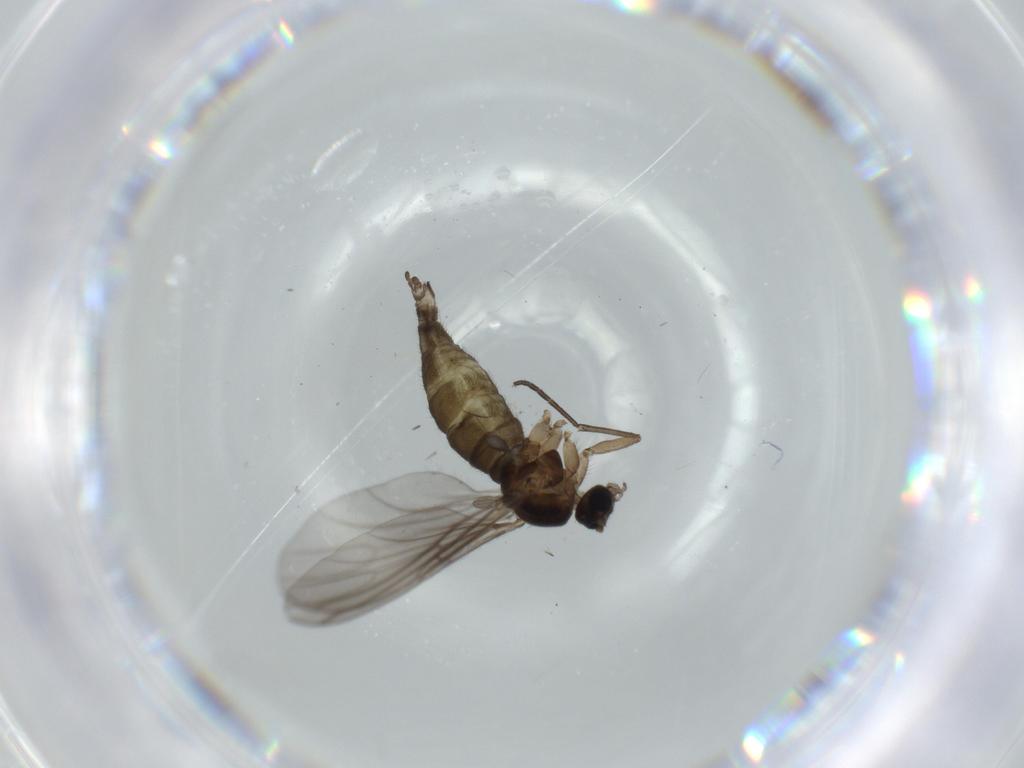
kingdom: Animalia
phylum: Arthropoda
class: Insecta
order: Diptera
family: Sciaridae
